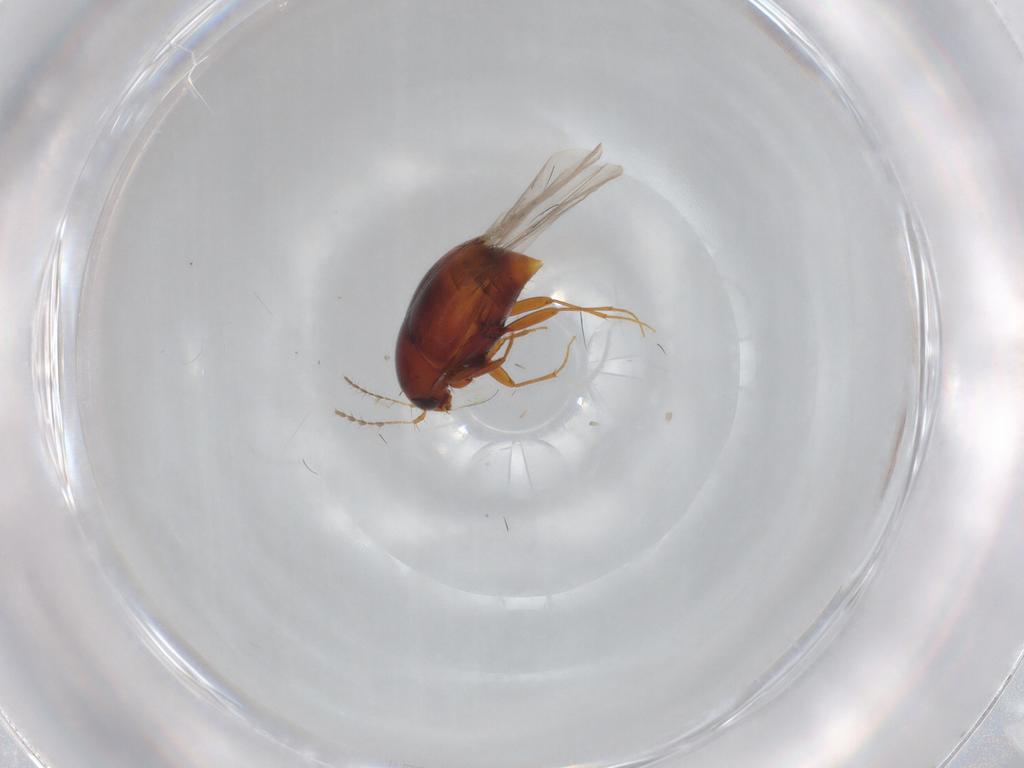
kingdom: Animalia
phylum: Arthropoda
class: Insecta
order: Coleoptera
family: Staphylinidae
